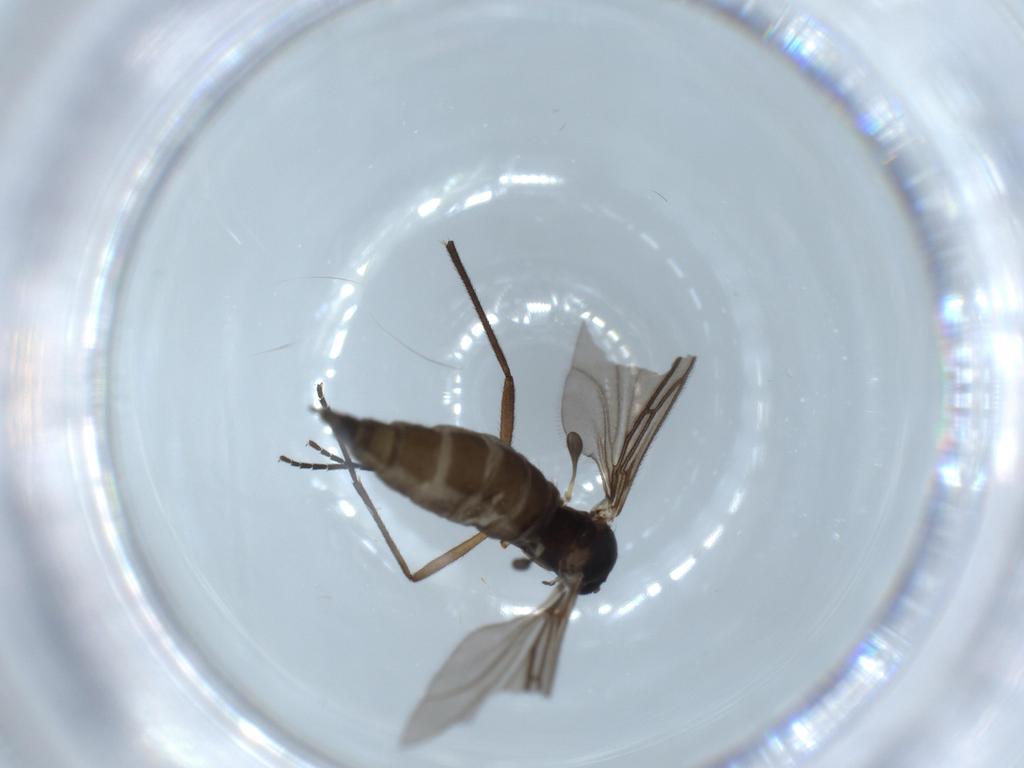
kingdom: Animalia
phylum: Arthropoda
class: Insecta
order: Diptera
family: Sciaridae
